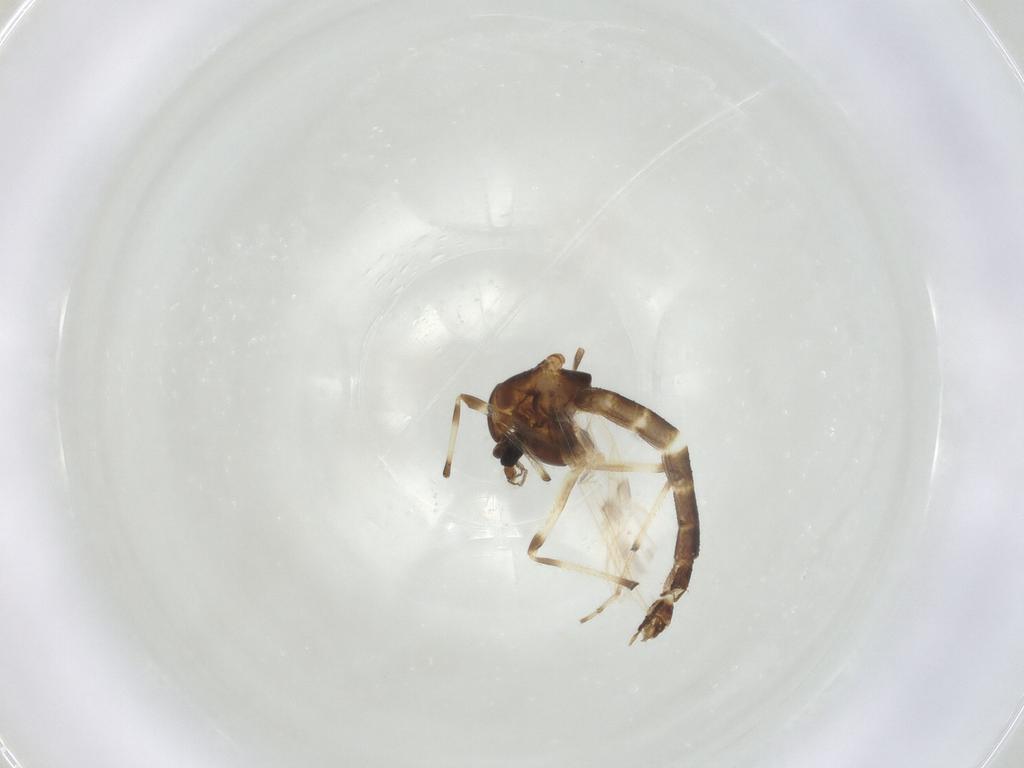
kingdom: Animalia
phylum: Arthropoda
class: Insecta
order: Diptera
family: Chironomidae
